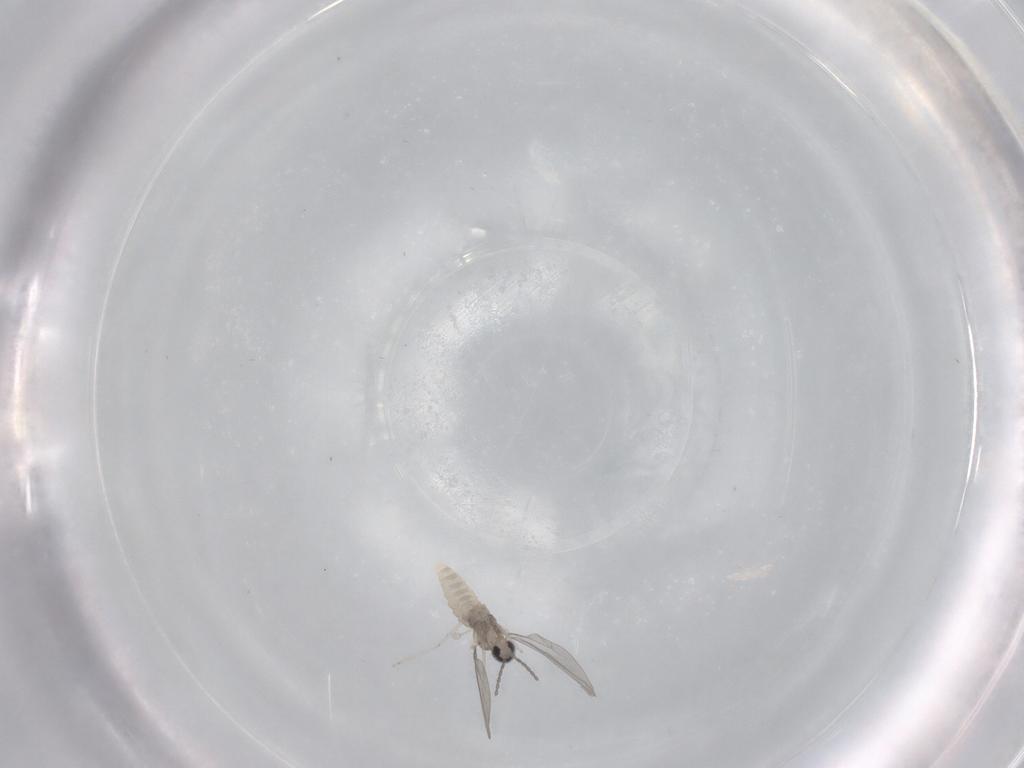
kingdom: Animalia
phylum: Arthropoda
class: Insecta
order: Diptera
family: Cecidomyiidae
